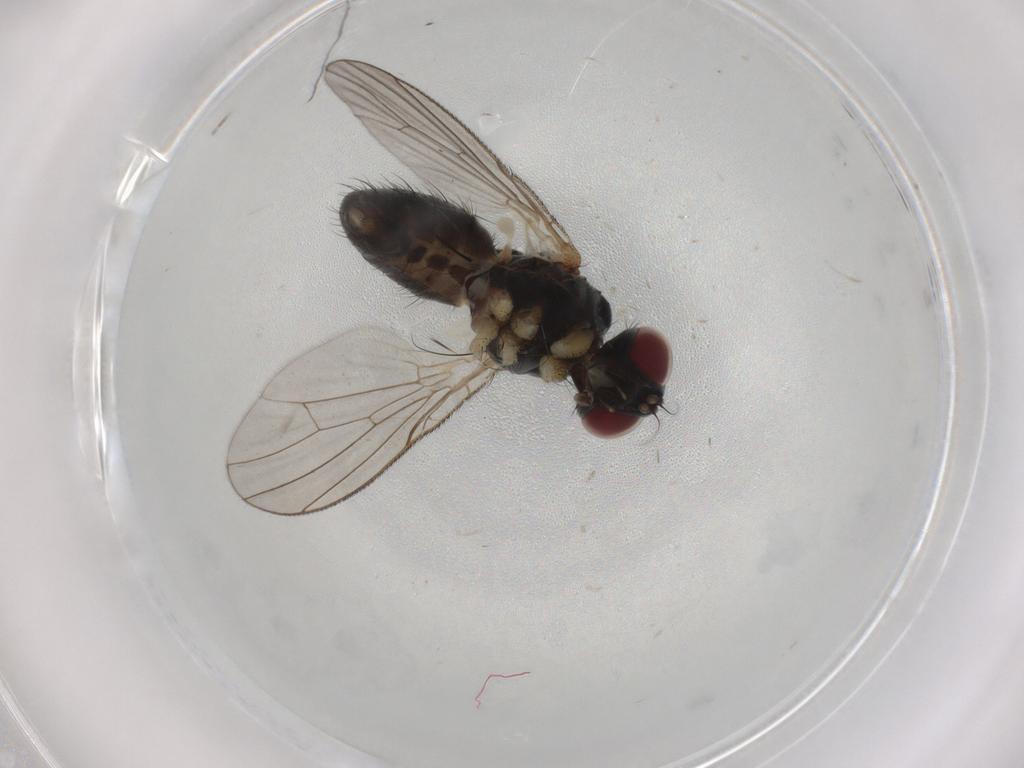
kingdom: Animalia
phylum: Arthropoda
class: Insecta
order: Diptera
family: Muscidae
